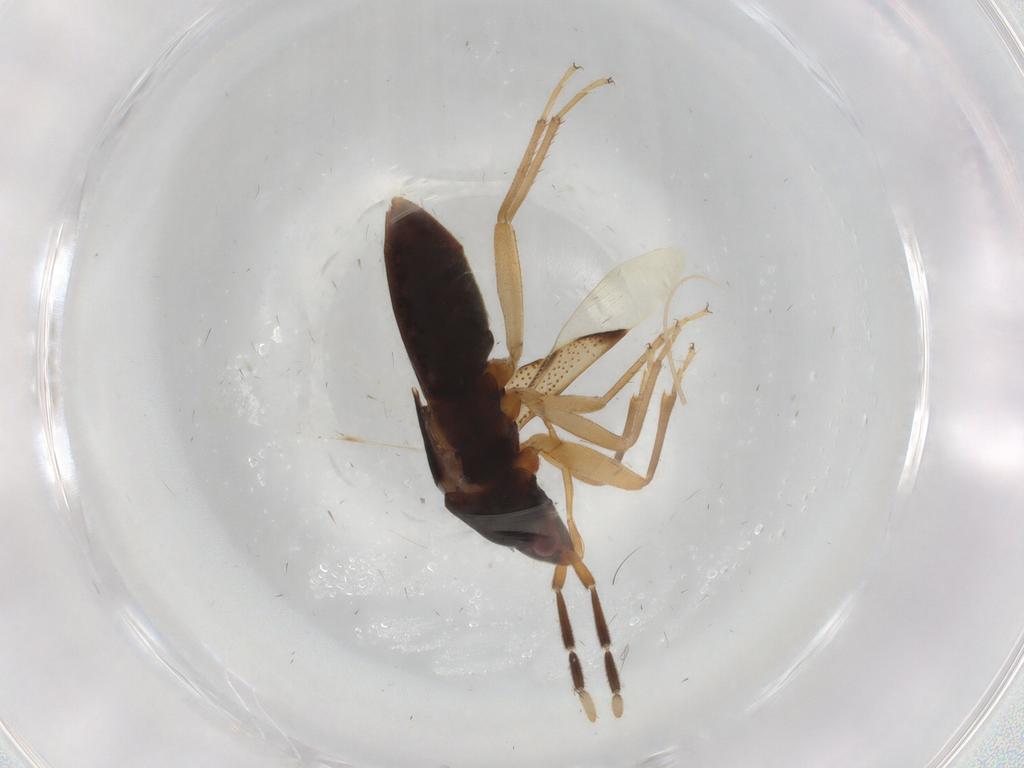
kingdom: Animalia
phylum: Arthropoda
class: Insecta
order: Hemiptera
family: Rhyparochromidae
